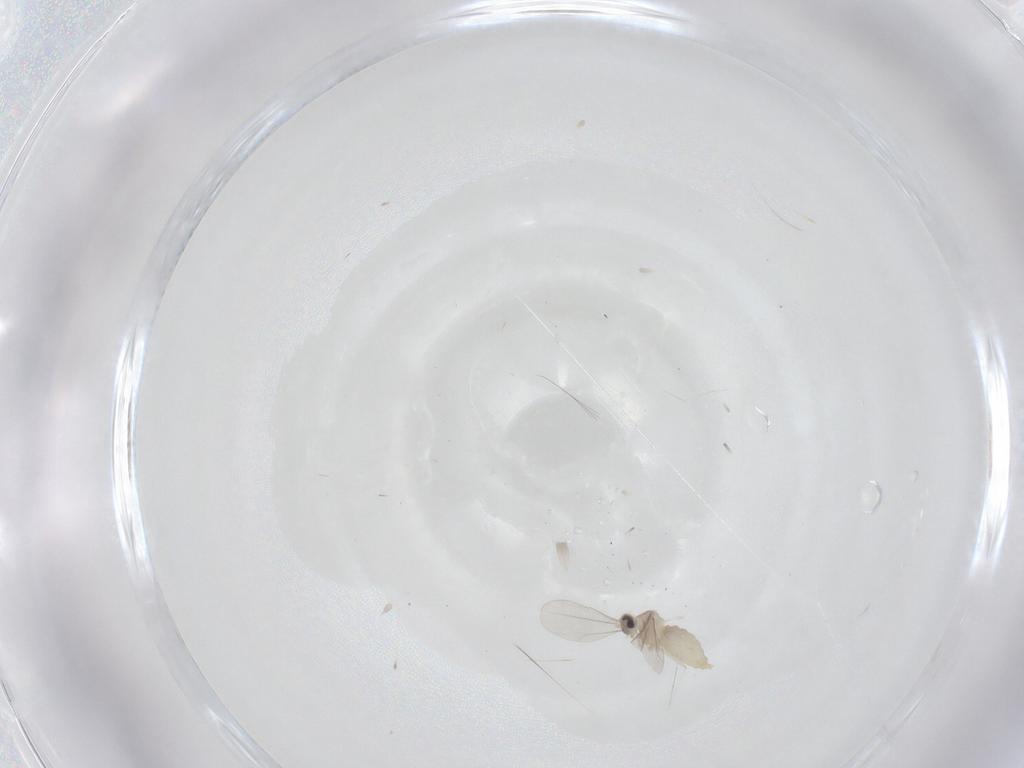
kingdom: Animalia
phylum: Arthropoda
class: Insecta
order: Diptera
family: Cecidomyiidae
